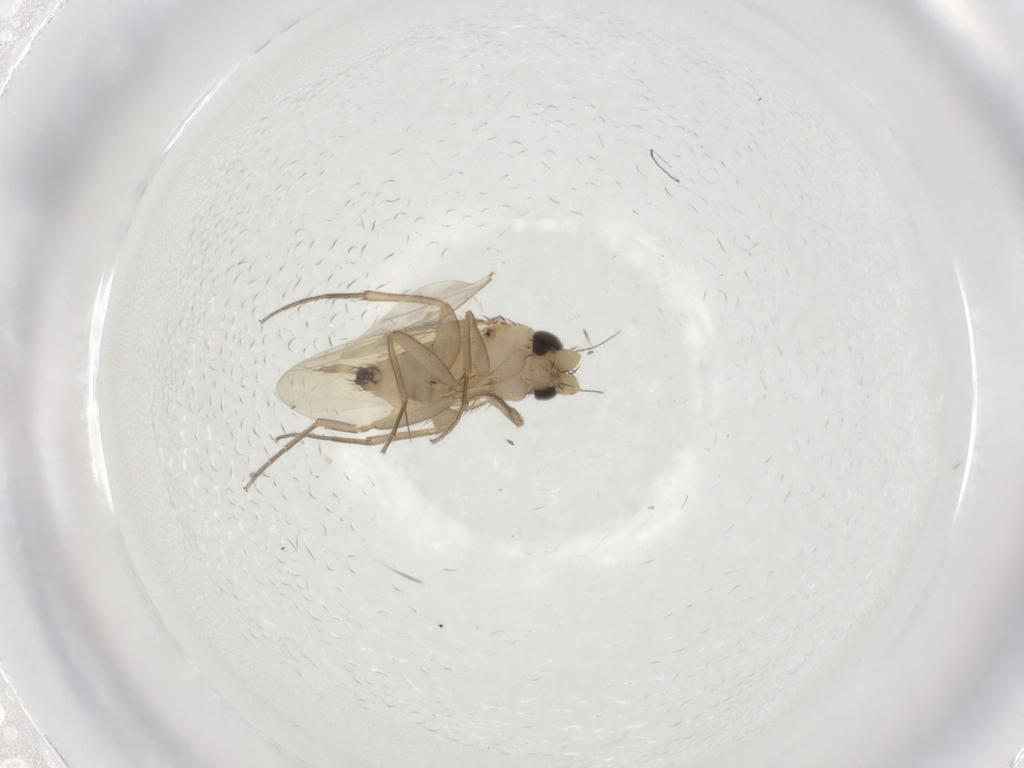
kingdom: Animalia
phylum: Arthropoda
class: Insecta
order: Diptera
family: Phoridae
